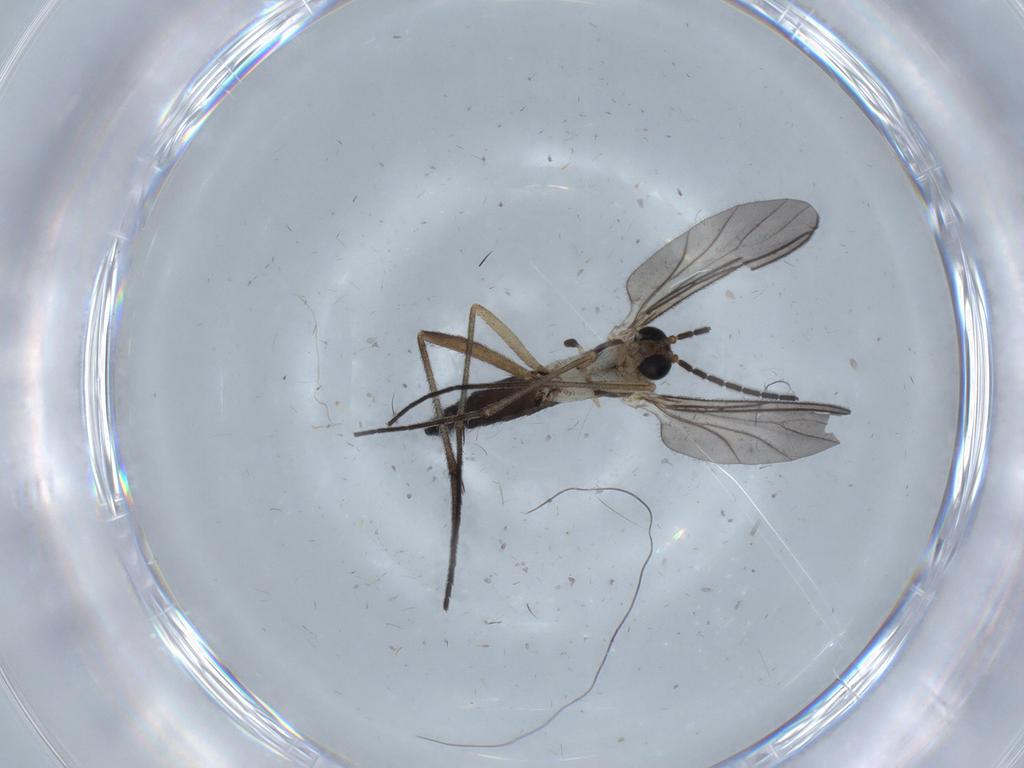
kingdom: Animalia
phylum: Arthropoda
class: Insecta
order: Diptera
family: Sciaridae
